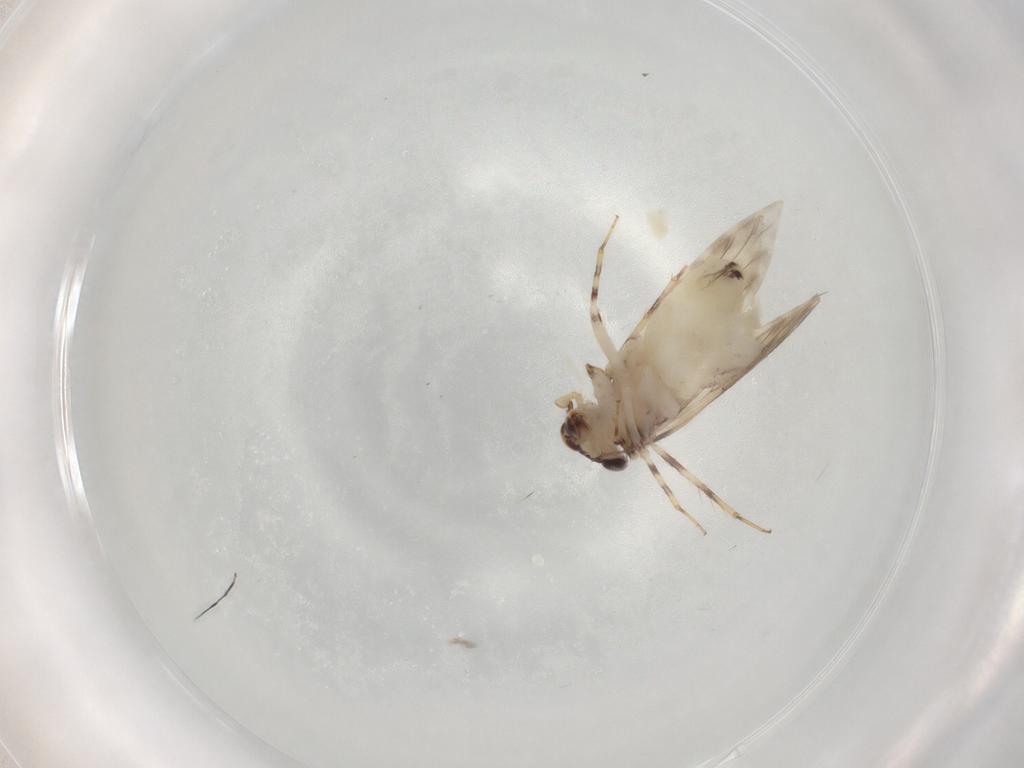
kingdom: Animalia
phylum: Arthropoda
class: Insecta
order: Psocodea
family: Lepidopsocidae
